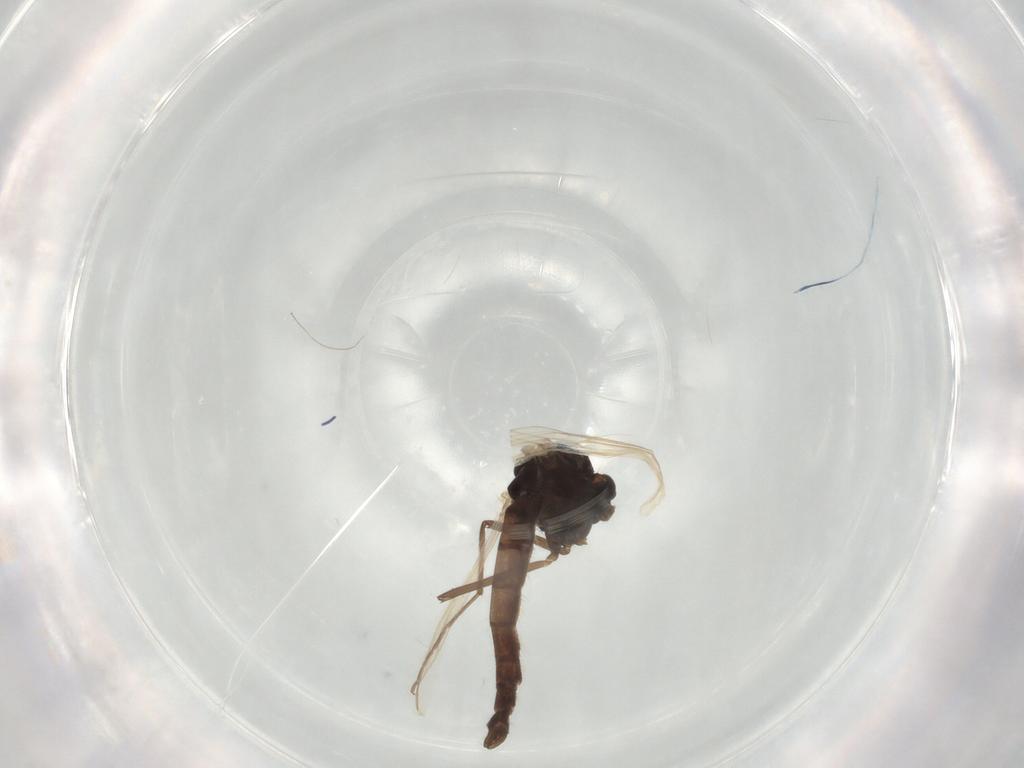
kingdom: Animalia
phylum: Arthropoda
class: Insecta
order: Diptera
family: Chironomidae
